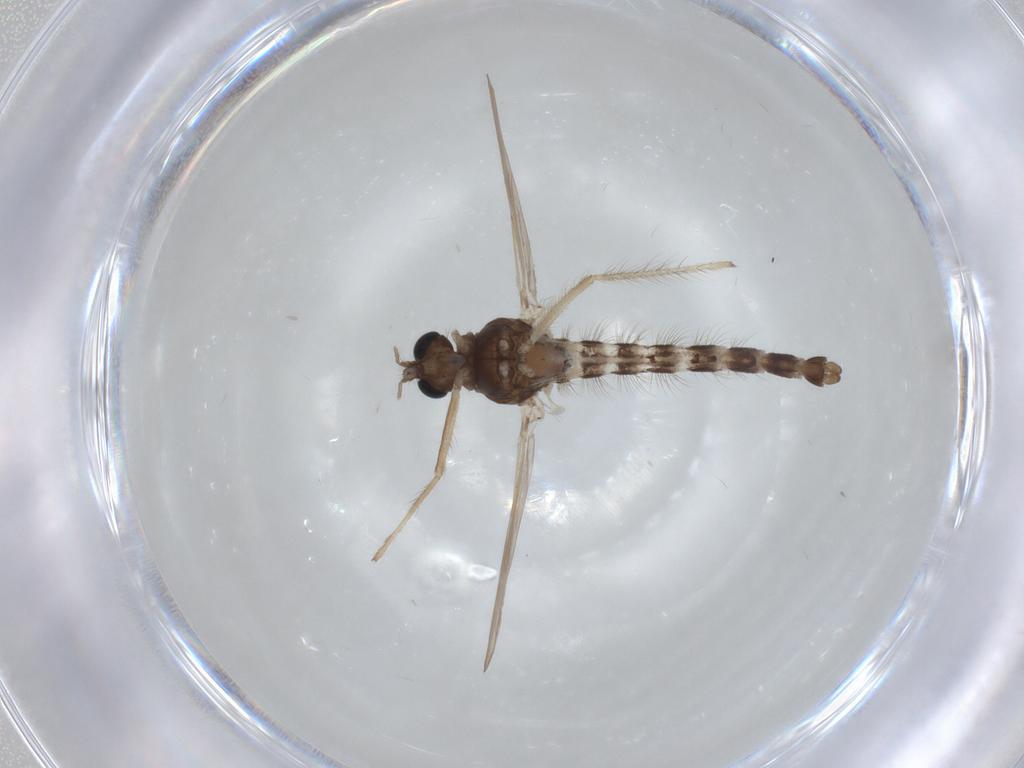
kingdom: Animalia
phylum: Arthropoda
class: Insecta
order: Diptera
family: Chironomidae
